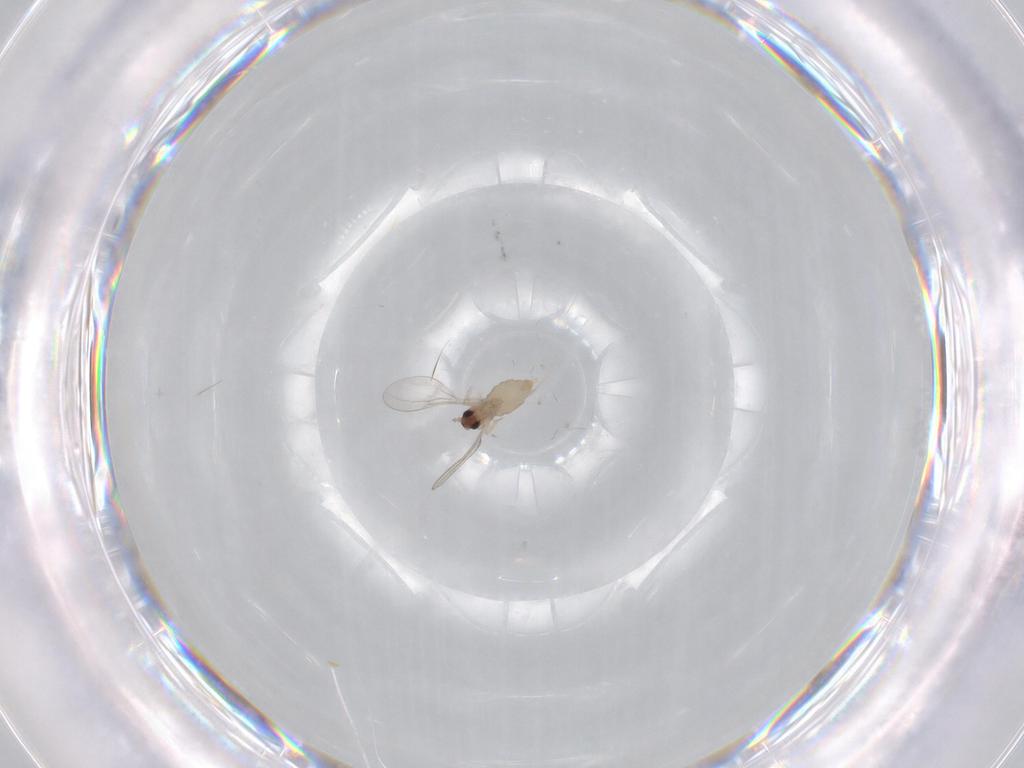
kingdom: Animalia
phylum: Arthropoda
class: Insecta
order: Diptera
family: Cecidomyiidae
